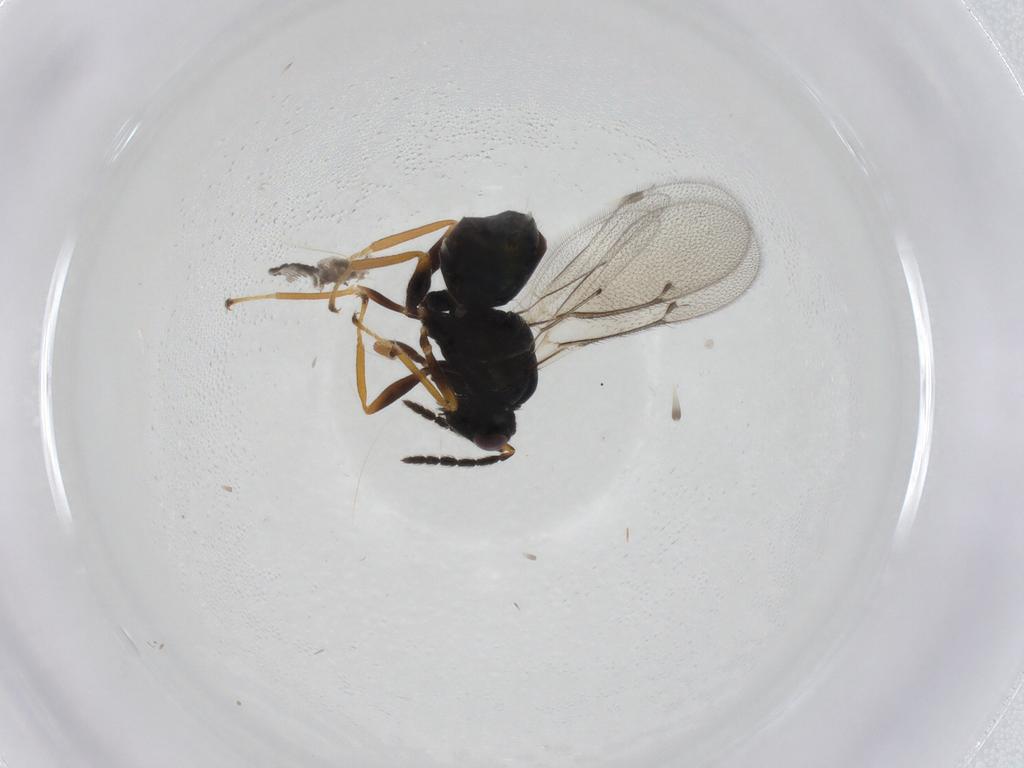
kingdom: Animalia
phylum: Arthropoda
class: Insecta
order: Hymenoptera
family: Eulophidae
